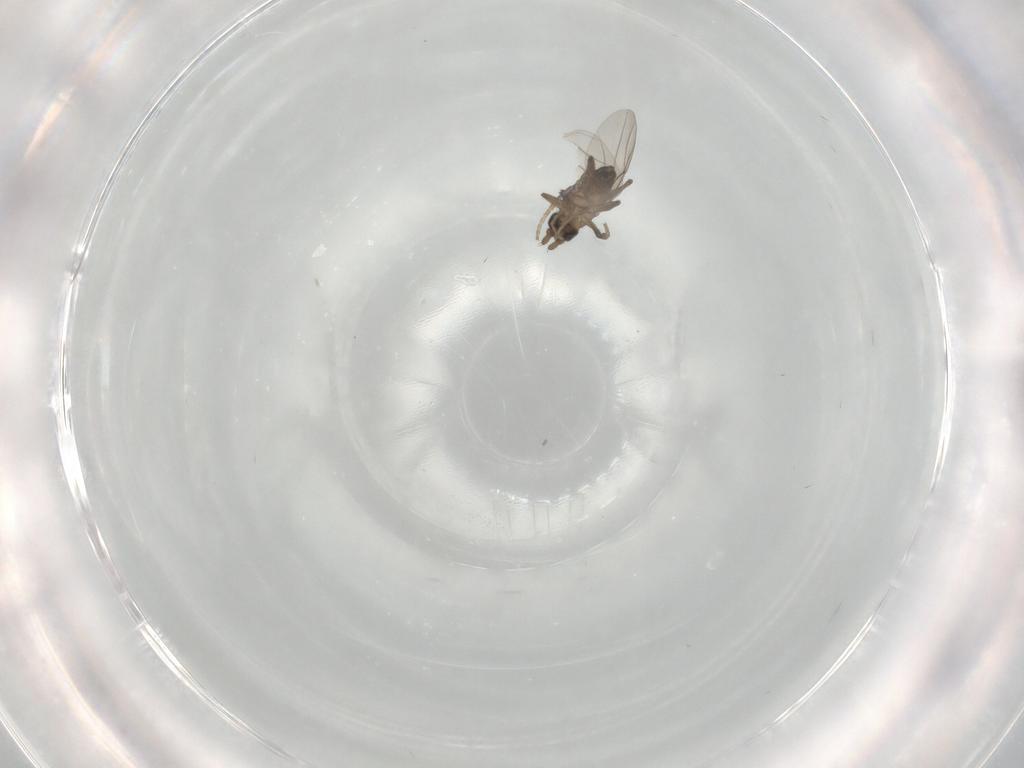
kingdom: Animalia
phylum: Arthropoda
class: Insecta
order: Diptera
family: Phoridae
